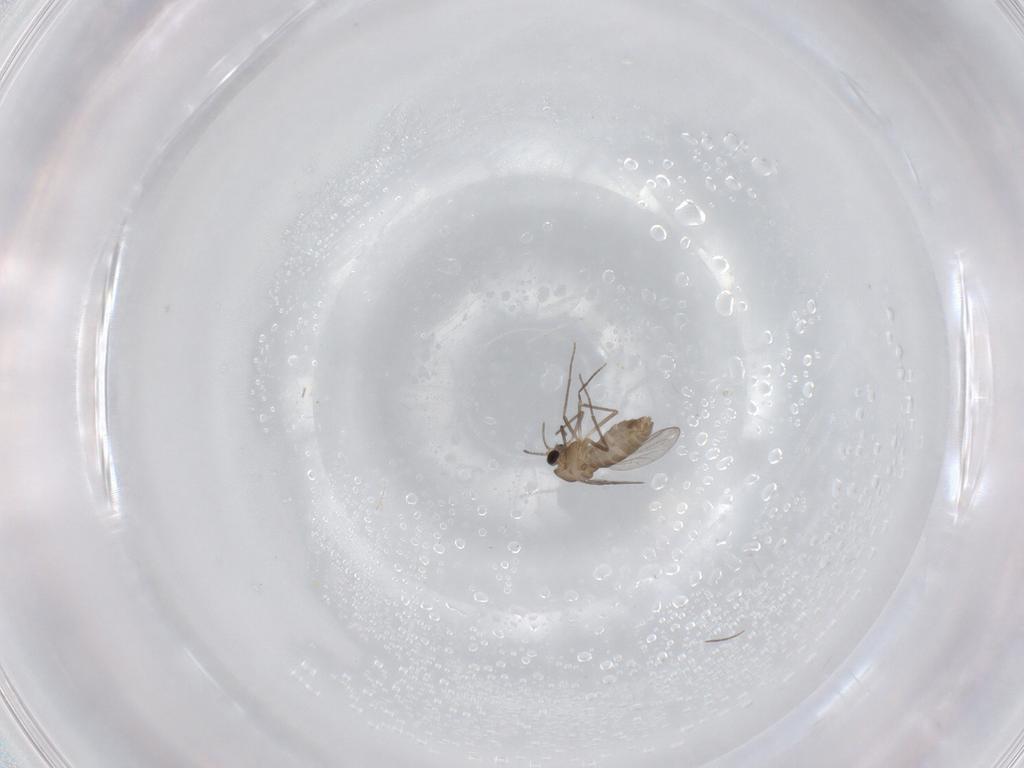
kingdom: Animalia
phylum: Arthropoda
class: Insecta
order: Diptera
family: Chironomidae
